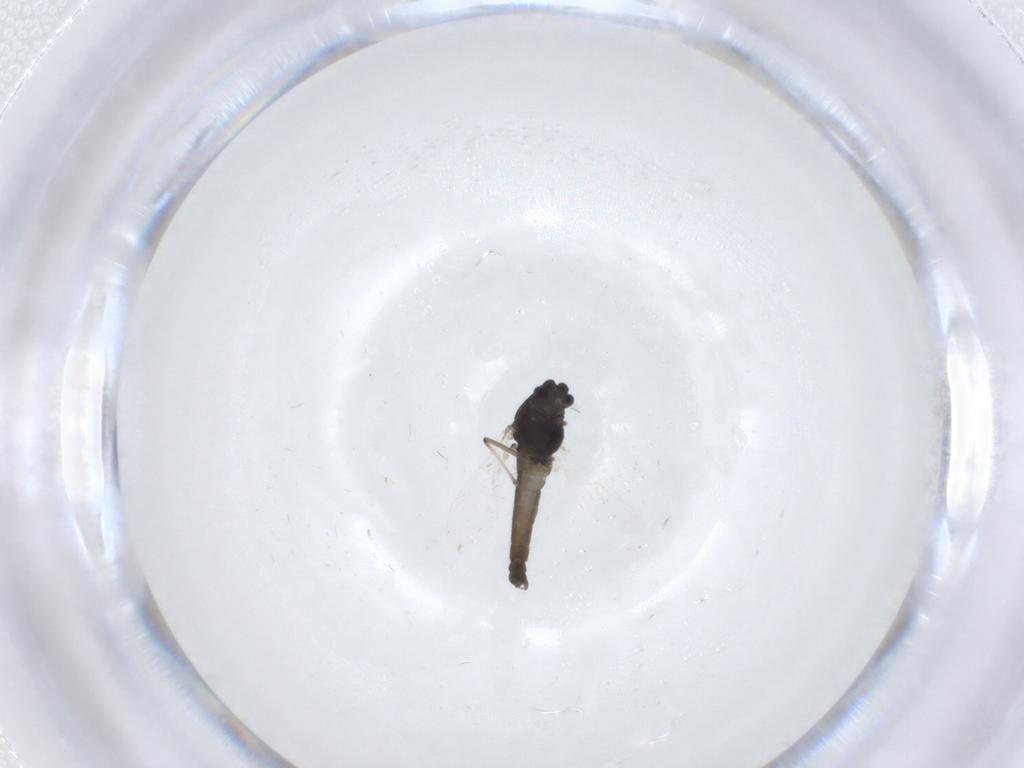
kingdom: Animalia
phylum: Arthropoda
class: Insecta
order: Diptera
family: Chironomidae
